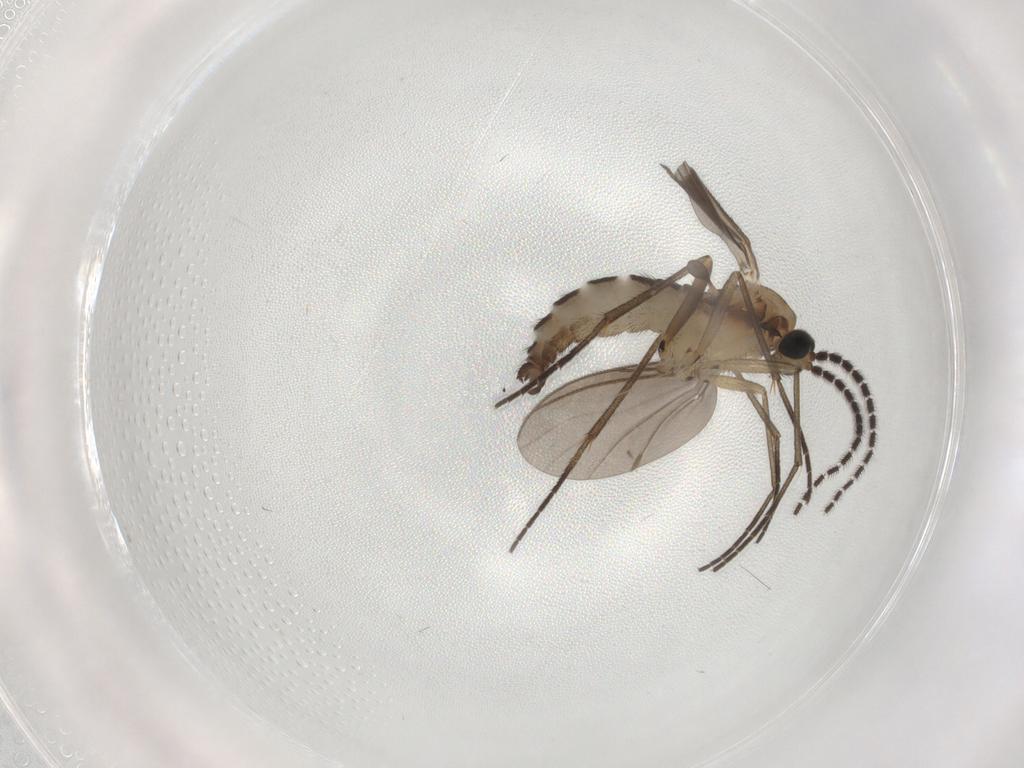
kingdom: Animalia
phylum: Arthropoda
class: Insecta
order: Diptera
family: Sciaridae
